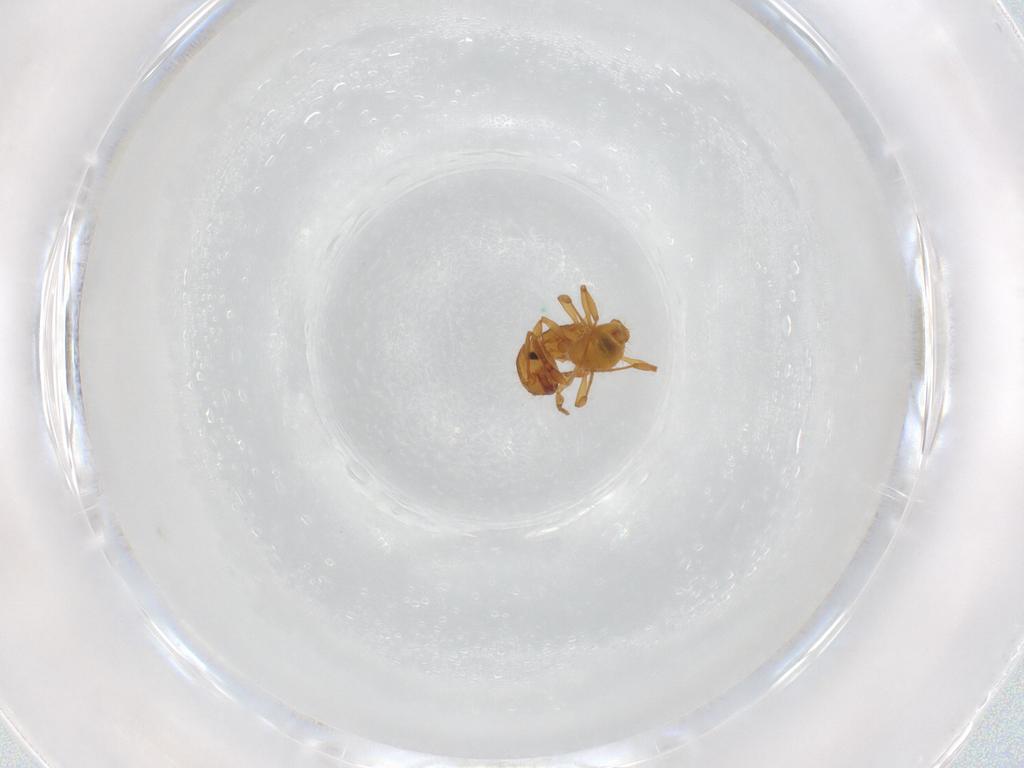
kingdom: Animalia
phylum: Arthropoda
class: Insecta
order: Hymenoptera
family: Formicidae
